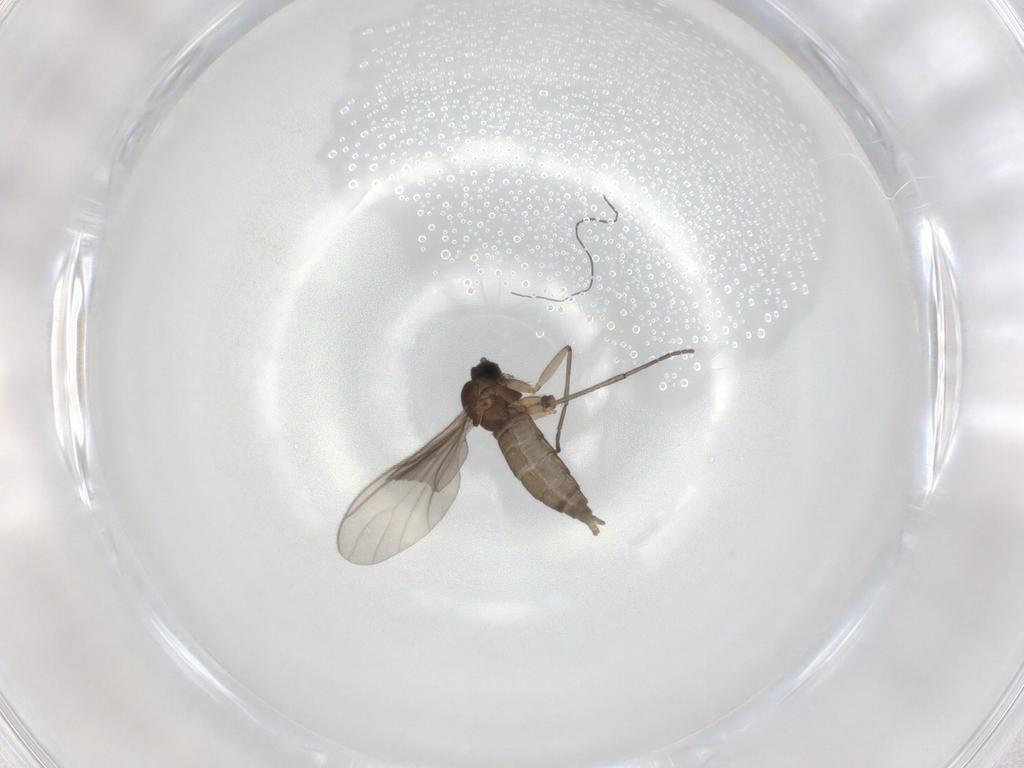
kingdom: Animalia
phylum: Arthropoda
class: Insecta
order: Diptera
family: Sciaridae
